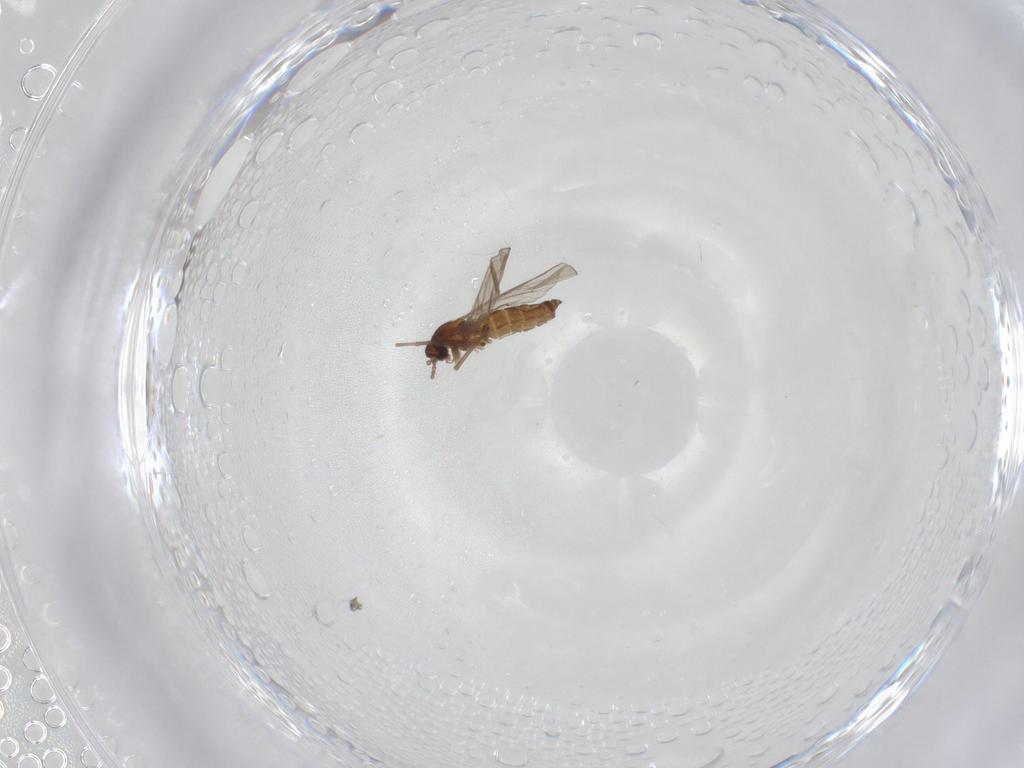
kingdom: Animalia
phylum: Arthropoda
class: Insecta
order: Diptera
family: Cecidomyiidae
